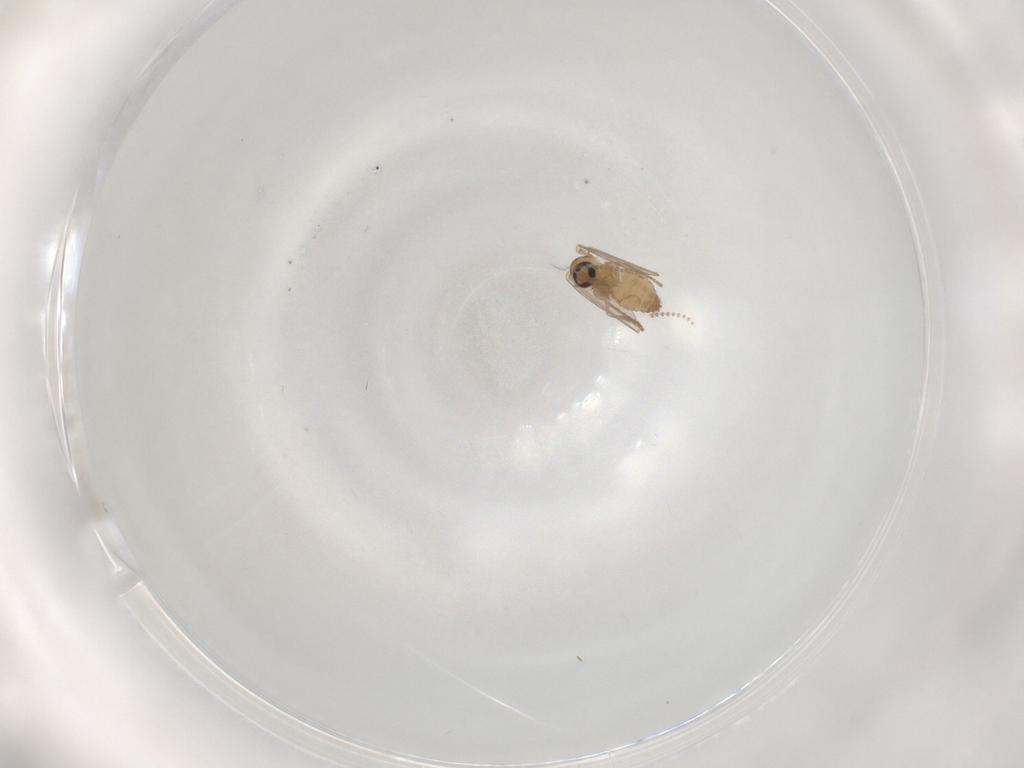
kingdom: Animalia
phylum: Arthropoda
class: Insecta
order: Diptera
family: Psychodidae
